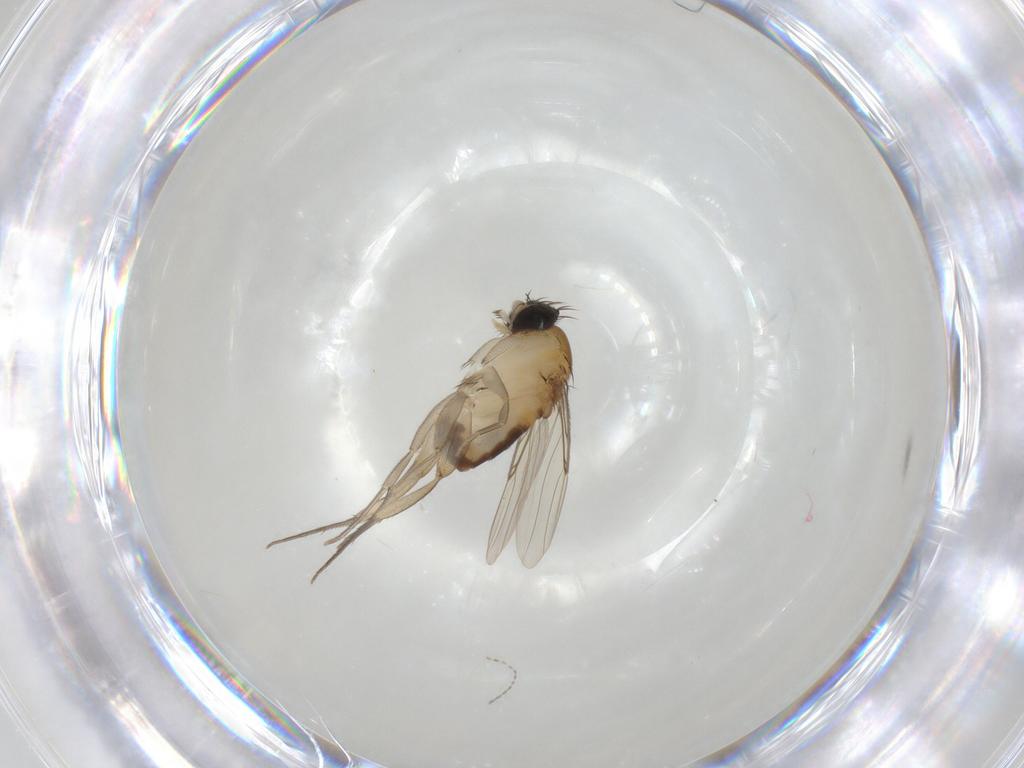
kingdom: Animalia
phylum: Arthropoda
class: Insecta
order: Diptera
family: Phoridae
